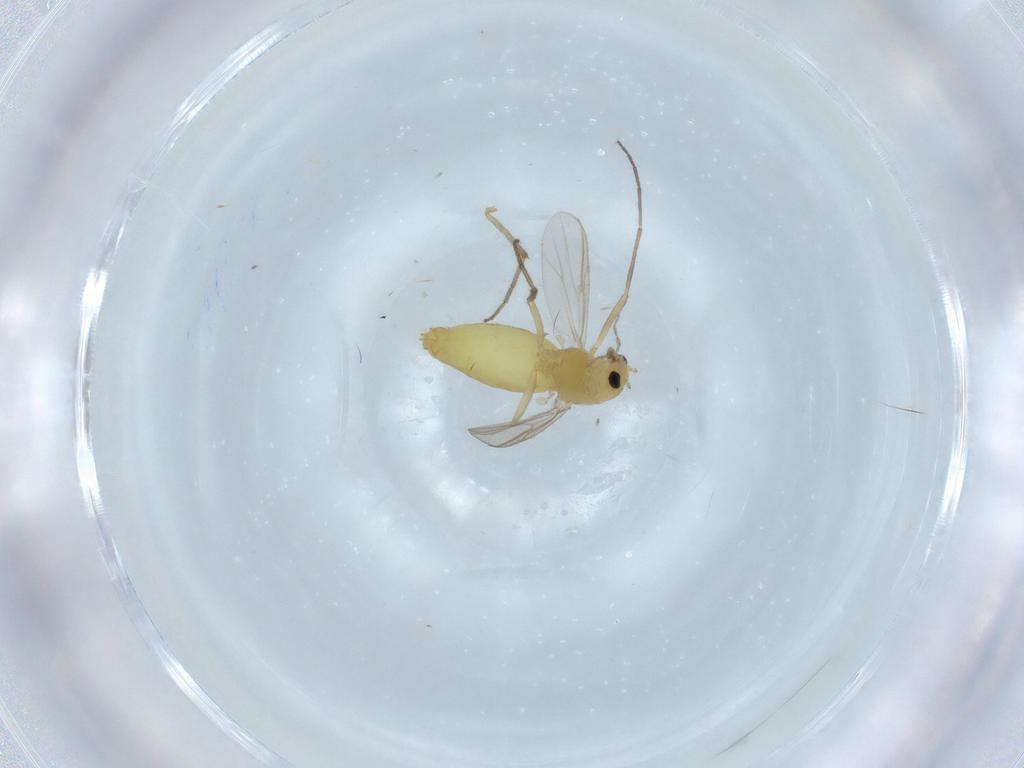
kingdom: Animalia
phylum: Arthropoda
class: Insecta
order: Diptera
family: Chironomidae
